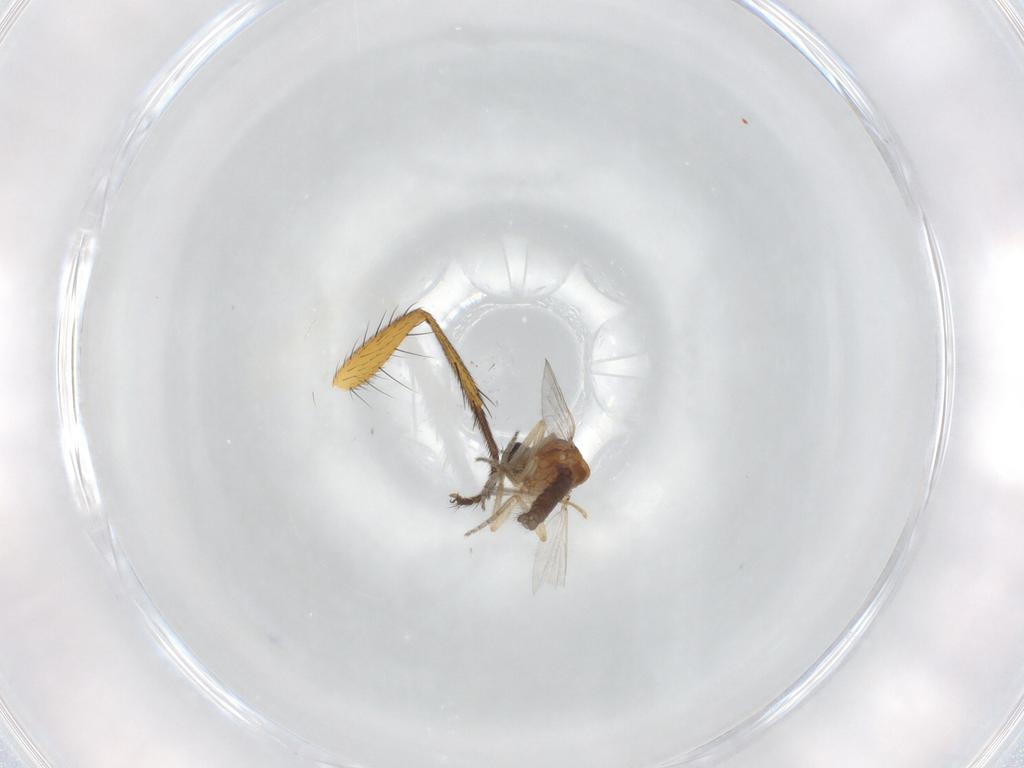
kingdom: Animalia
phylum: Arthropoda
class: Insecta
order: Diptera
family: Ceratopogonidae
